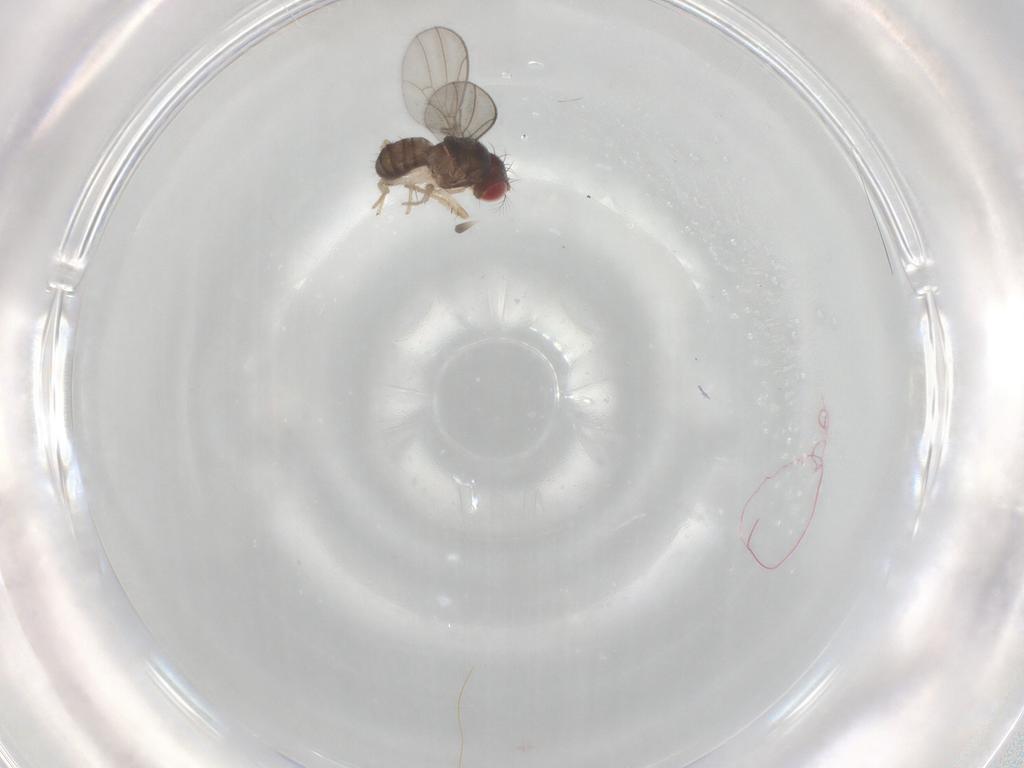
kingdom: Animalia
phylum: Arthropoda
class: Insecta
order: Diptera
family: Drosophilidae
